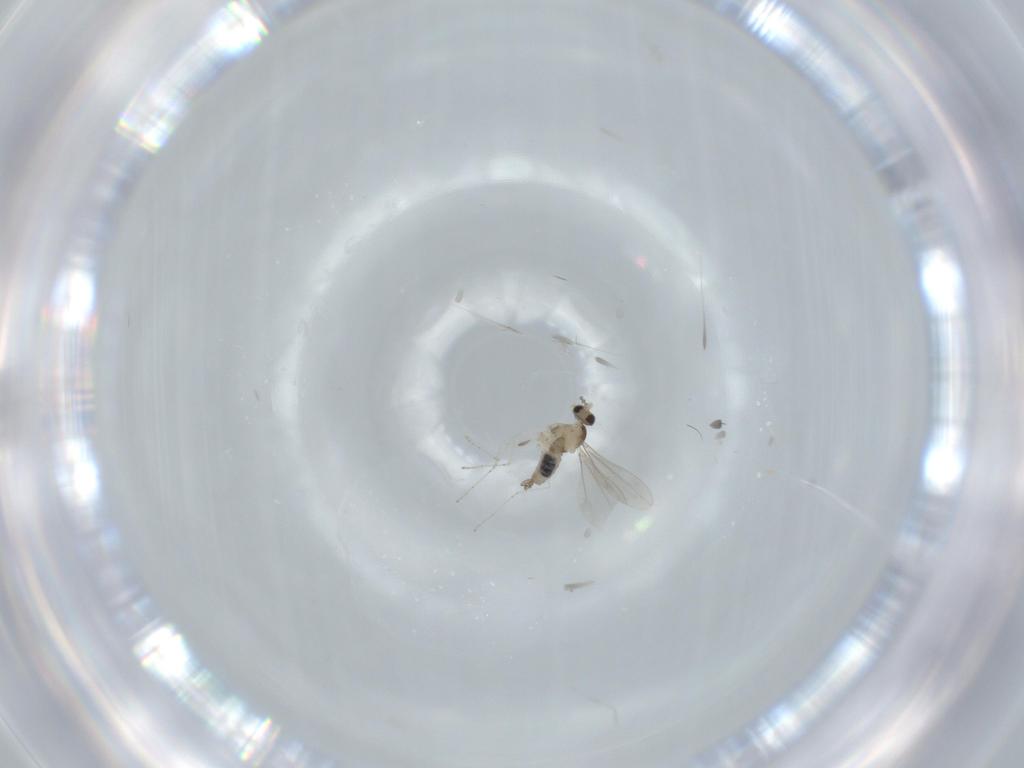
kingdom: Animalia
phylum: Arthropoda
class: Insecta
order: Diptera
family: Cecidomyiidae
